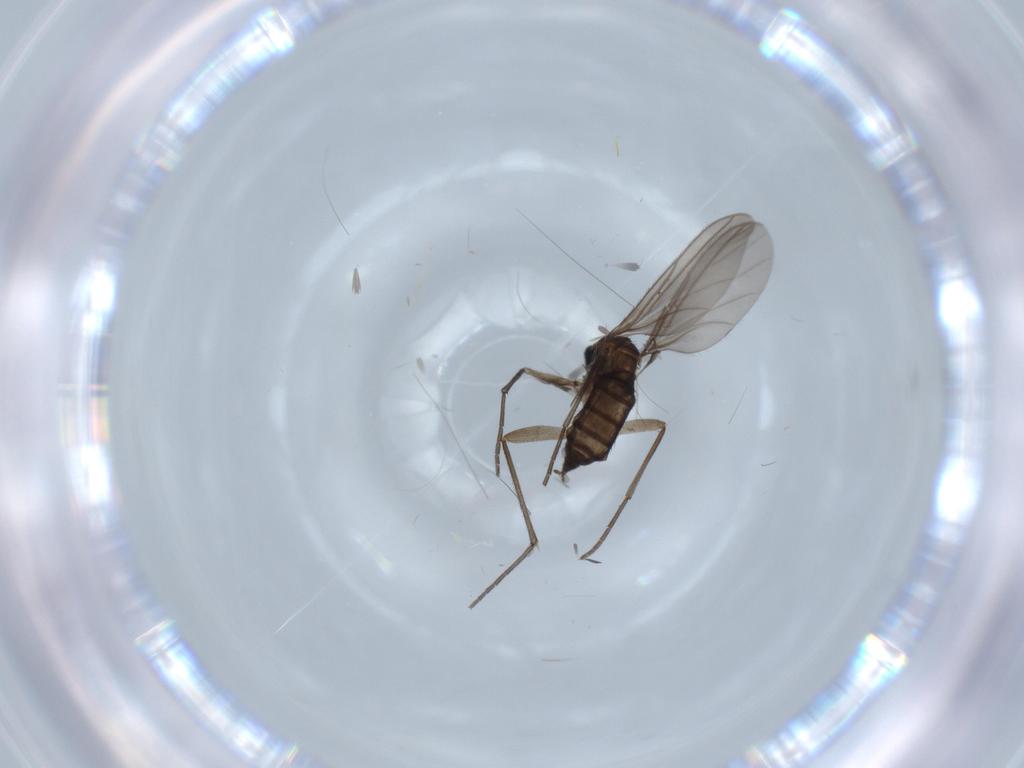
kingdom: Animalia
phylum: Arthropoda
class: Insecta
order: Diptera
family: Sciaridae
